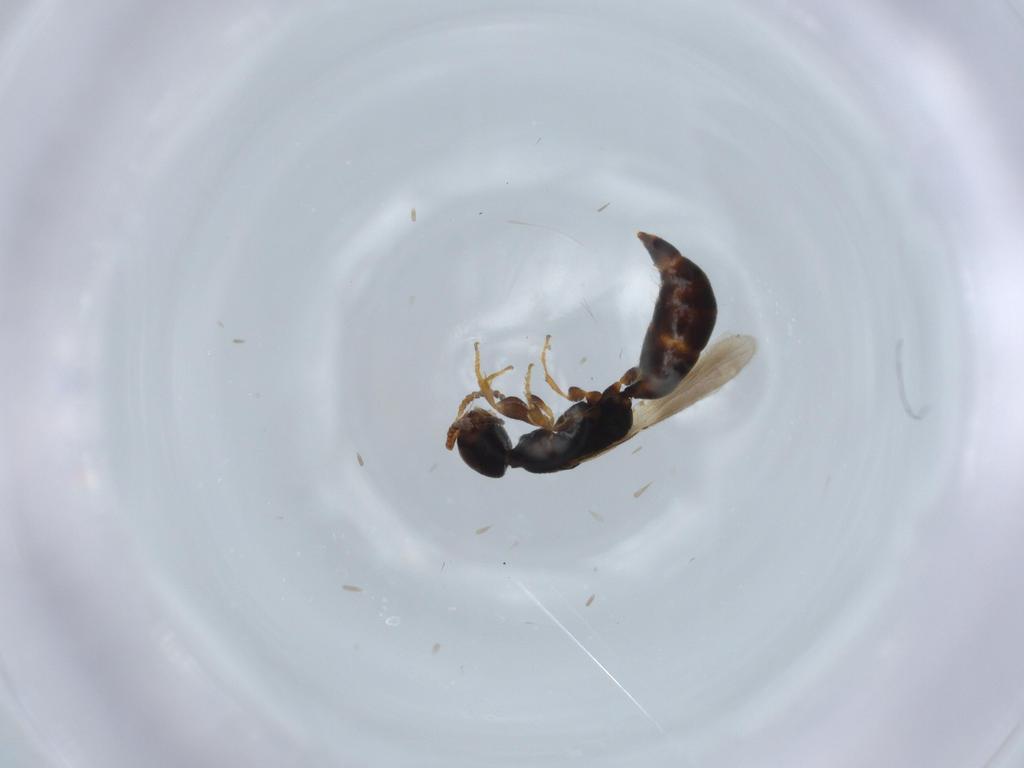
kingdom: Animalia
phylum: Arthropoda
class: Insecta
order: Hymenoptera
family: Bethylidae
